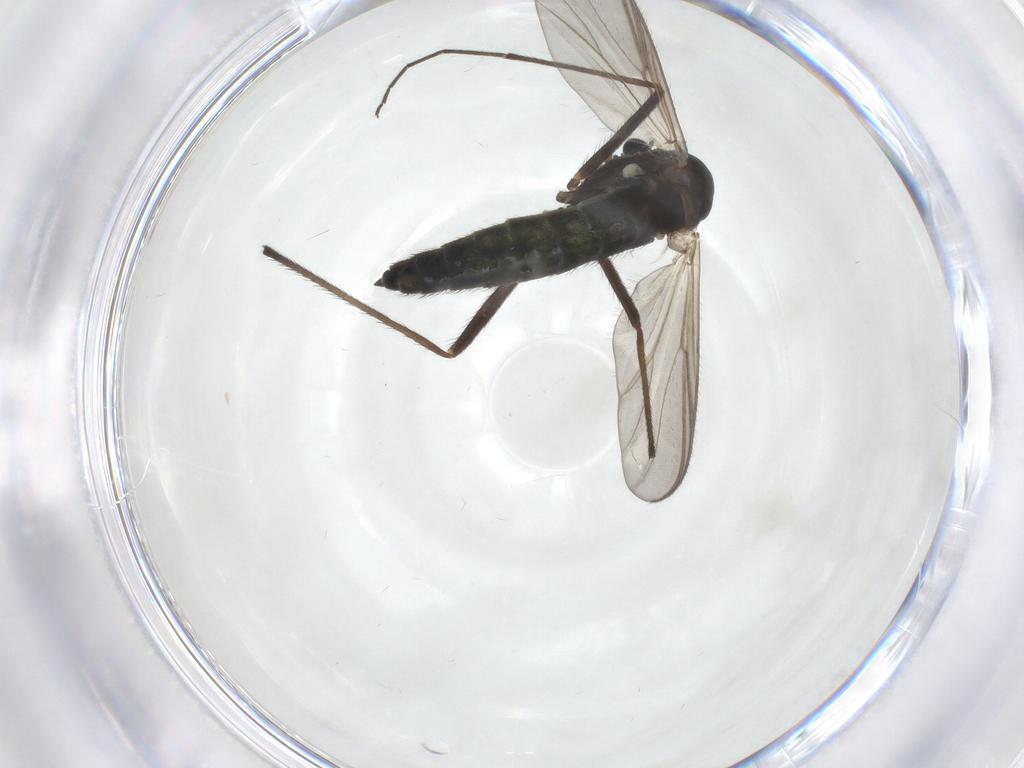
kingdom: Animalia
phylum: Arthropoda
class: Insecta
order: Diptera
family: Chironomidae
